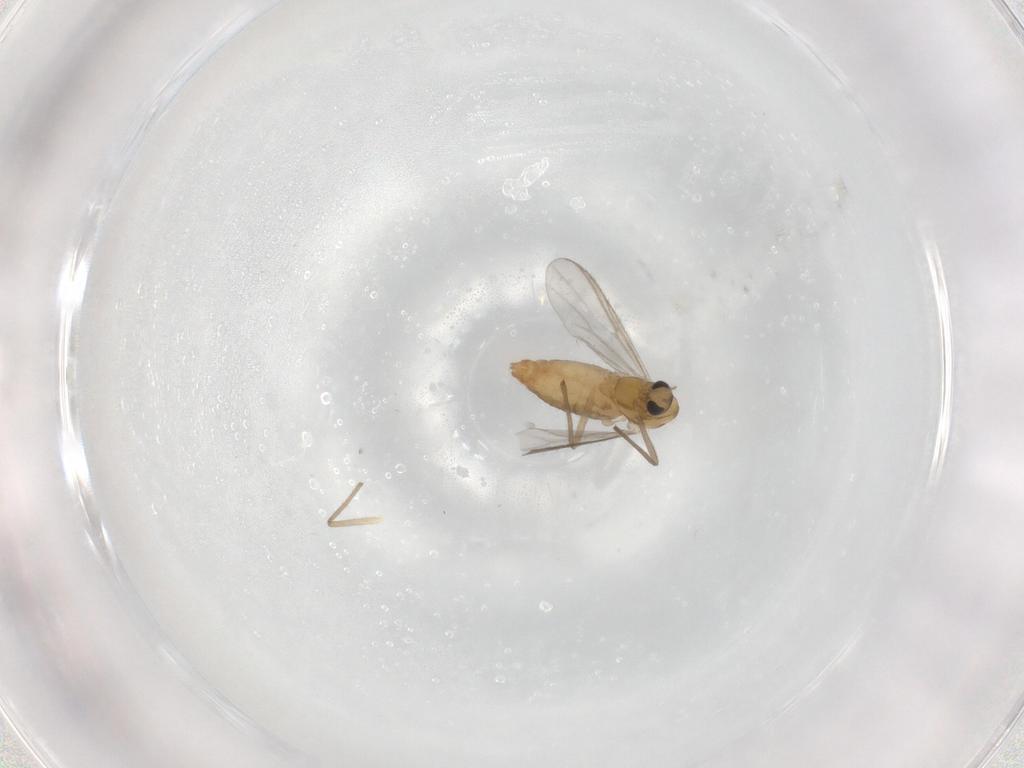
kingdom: Animalia
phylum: Arthropoda
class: Insecta
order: Diptera
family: Chironomidae
